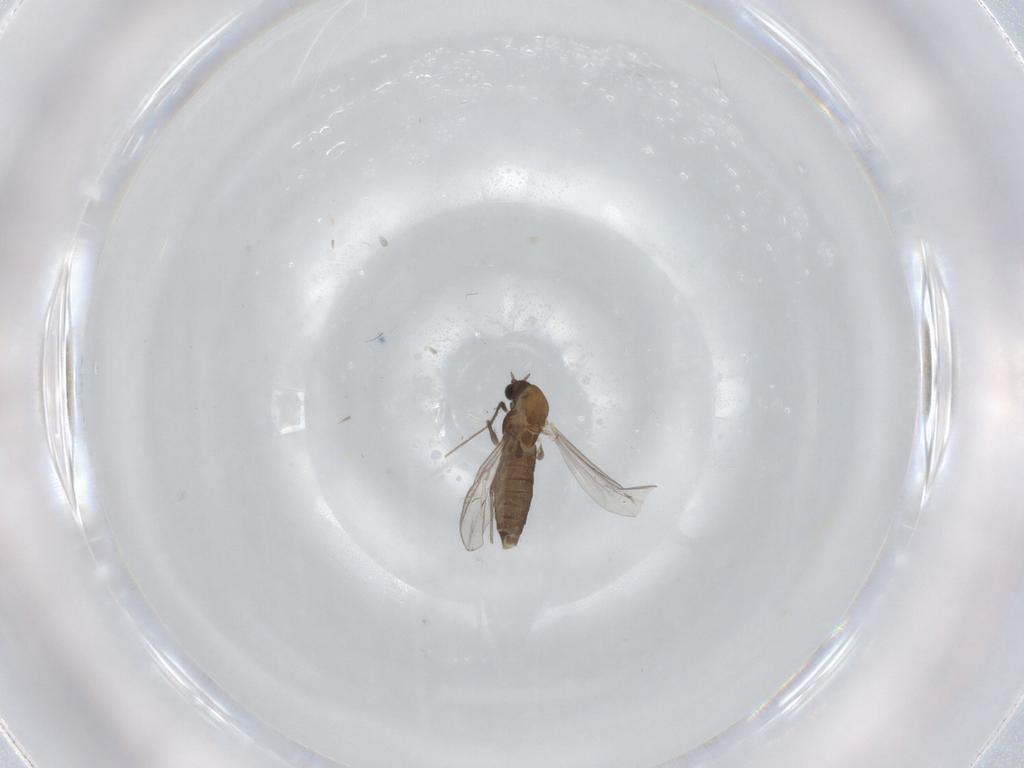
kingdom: Animalia
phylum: Arthropoda
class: Insecta
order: Diptera
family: Chironomidae
